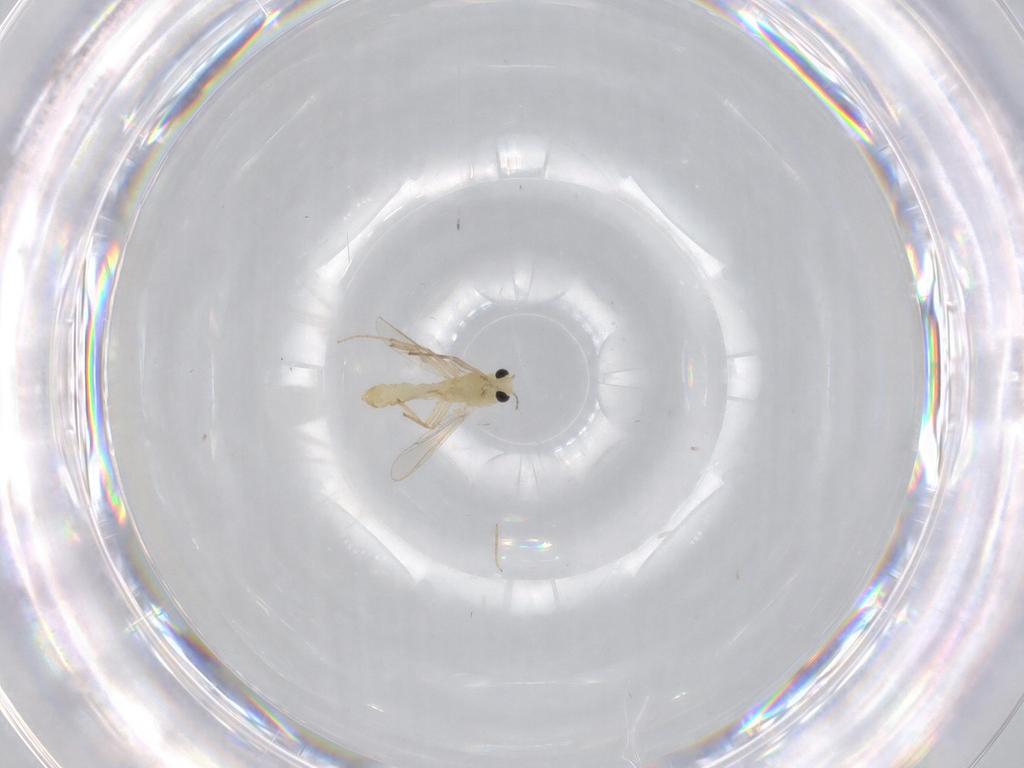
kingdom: Animalia
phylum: Arthropoda
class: Insecta
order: Diptera
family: Chironomidae
